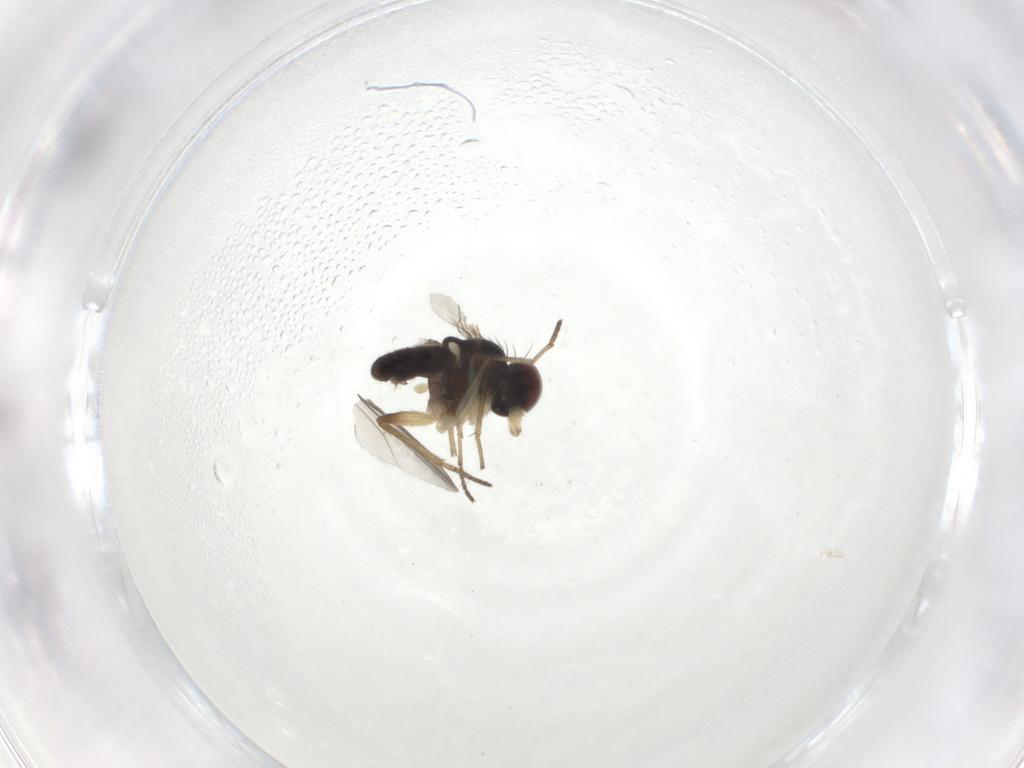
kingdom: Animalia
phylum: Arthropoda
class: Insecta
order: Diptera
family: Dolichopodidae
